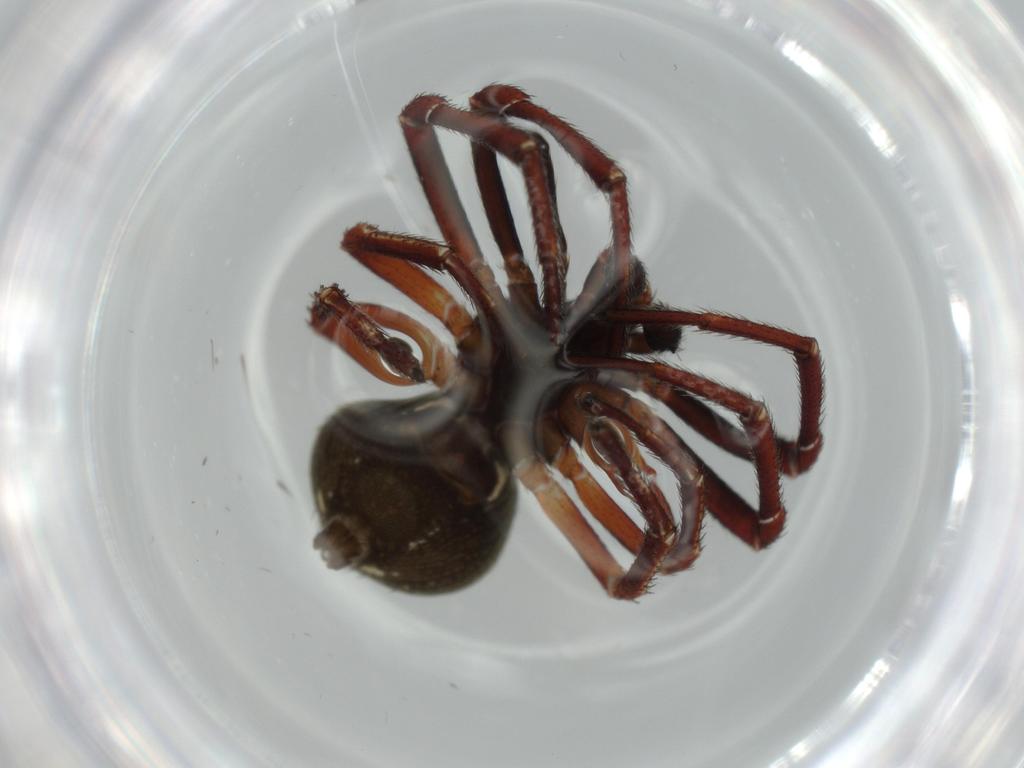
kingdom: Animalia
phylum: Arthropoda
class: Arachnida
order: Araneae
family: Thomisidae
